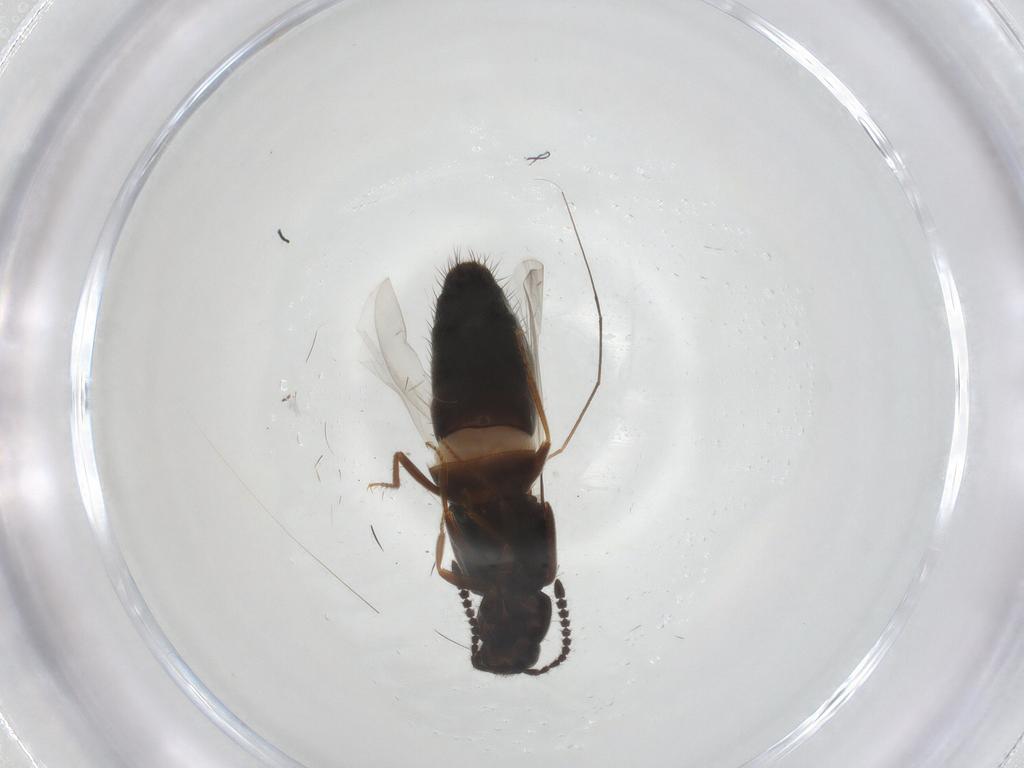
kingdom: Animalia
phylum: Arthropoda
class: Insecta
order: Coleoptera
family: Staphylinidae
